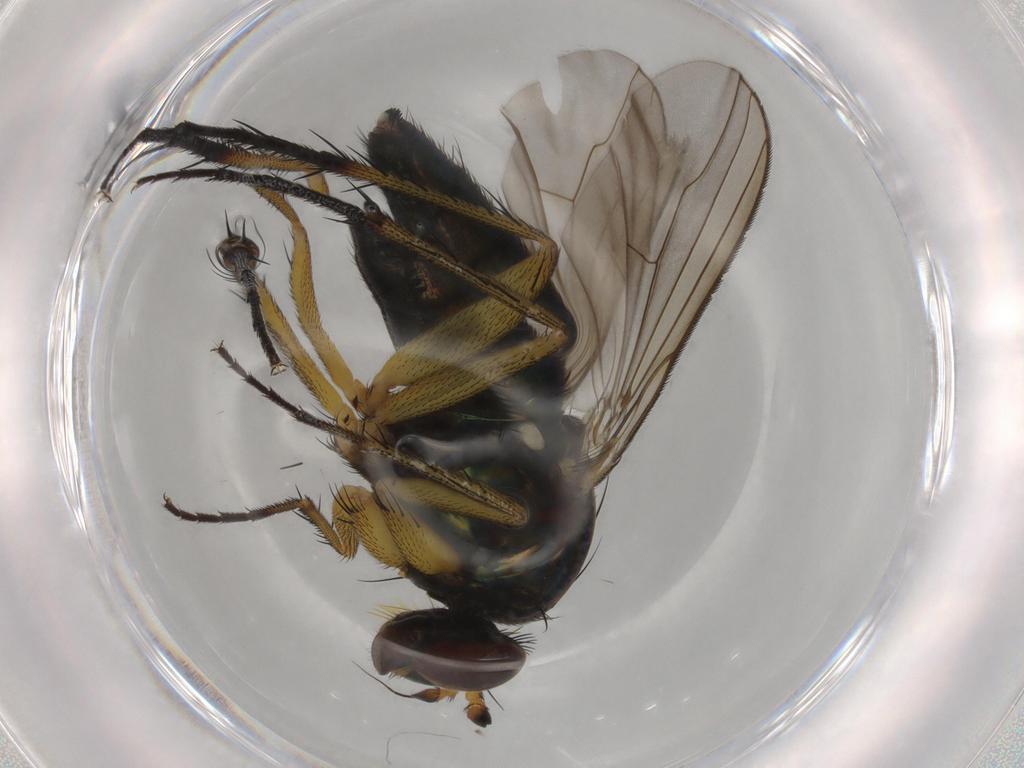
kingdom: Animalia
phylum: Arthropoda
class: Insecta
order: Diptera
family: Dolichopodidae
